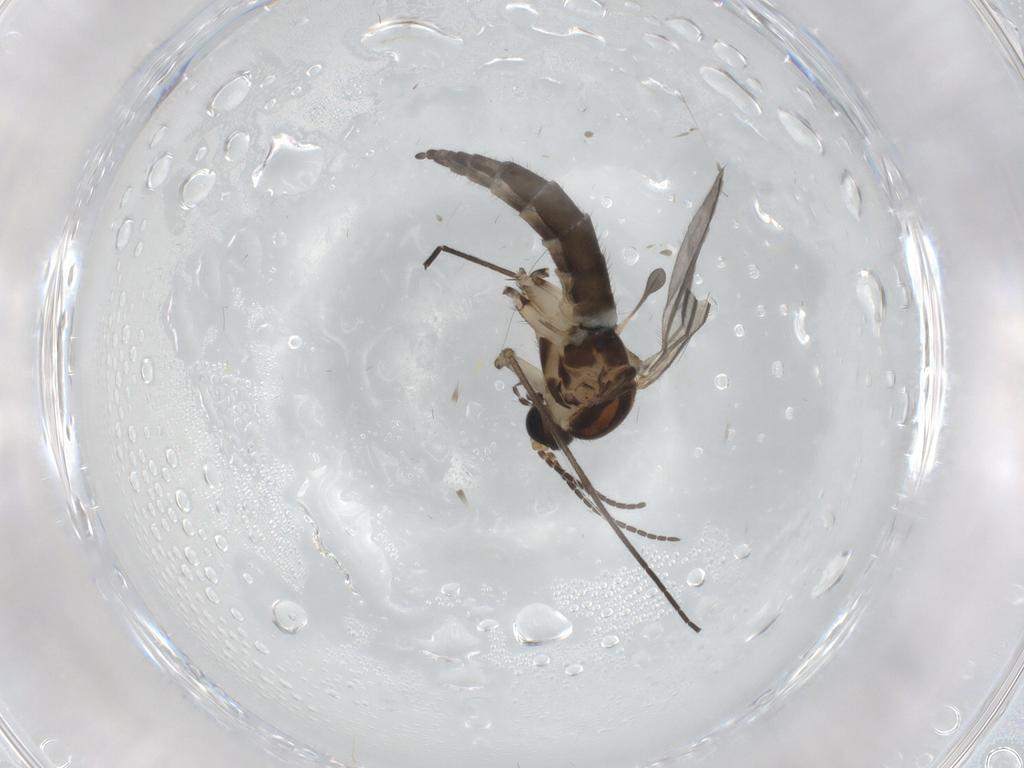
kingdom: Animalia
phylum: Arthropoda
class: Insecta
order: Diptera
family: Sciaridae
